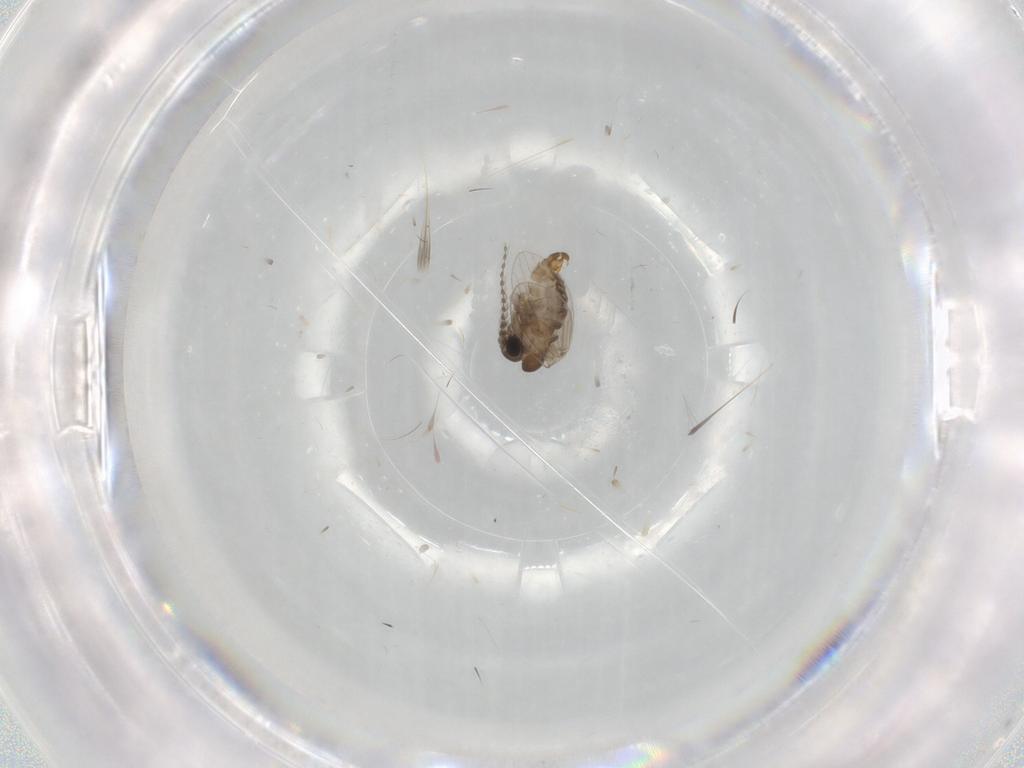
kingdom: Animalia
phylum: Arthropoda
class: Insecta
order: Diptera
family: Psychodidae
